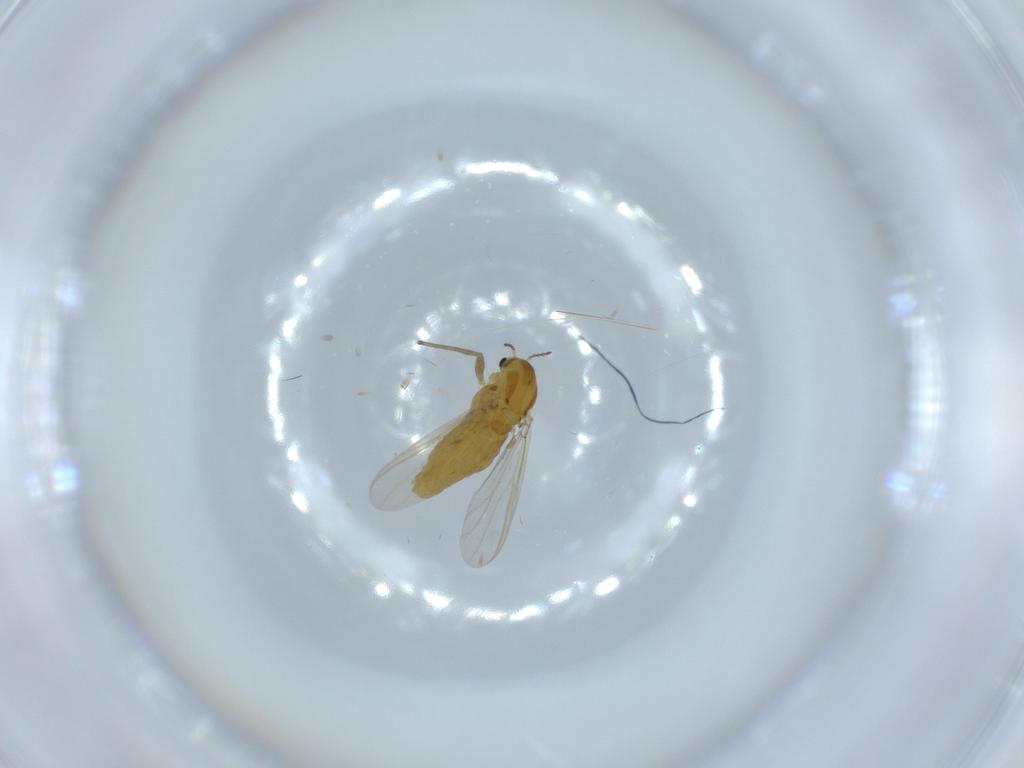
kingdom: Animalia
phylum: Arthropoda
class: Insecta
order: Diptera
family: Chironomidae
